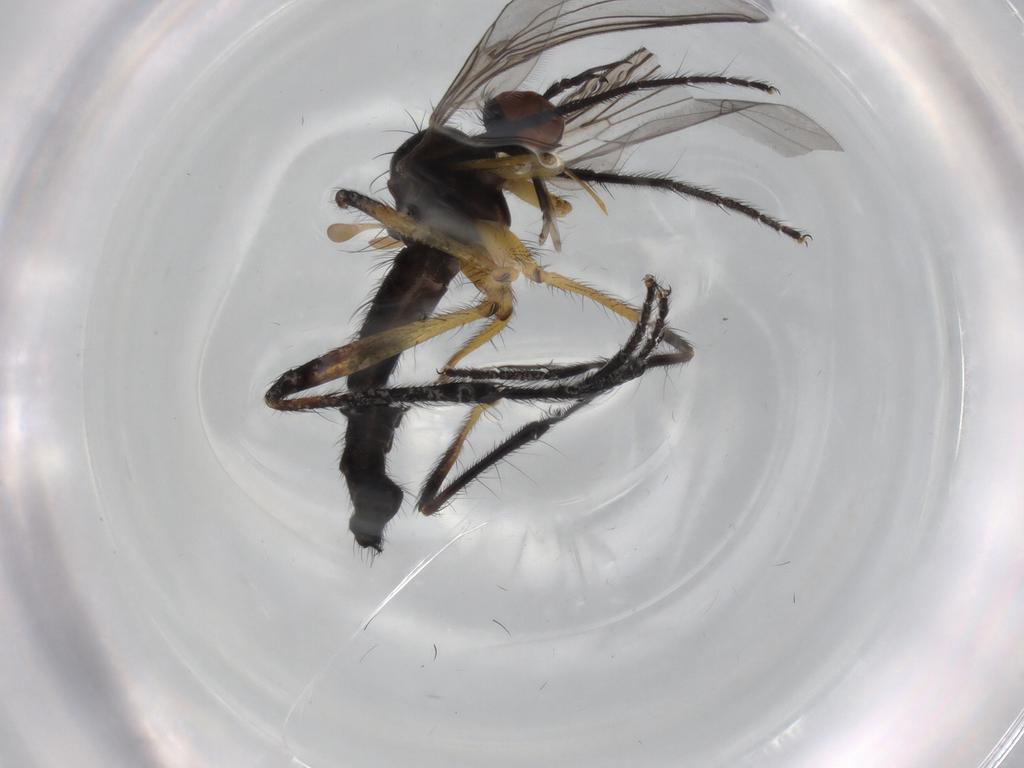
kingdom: Animalia
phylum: Arthropoda
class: Insecta
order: Diptera
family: Empididae
